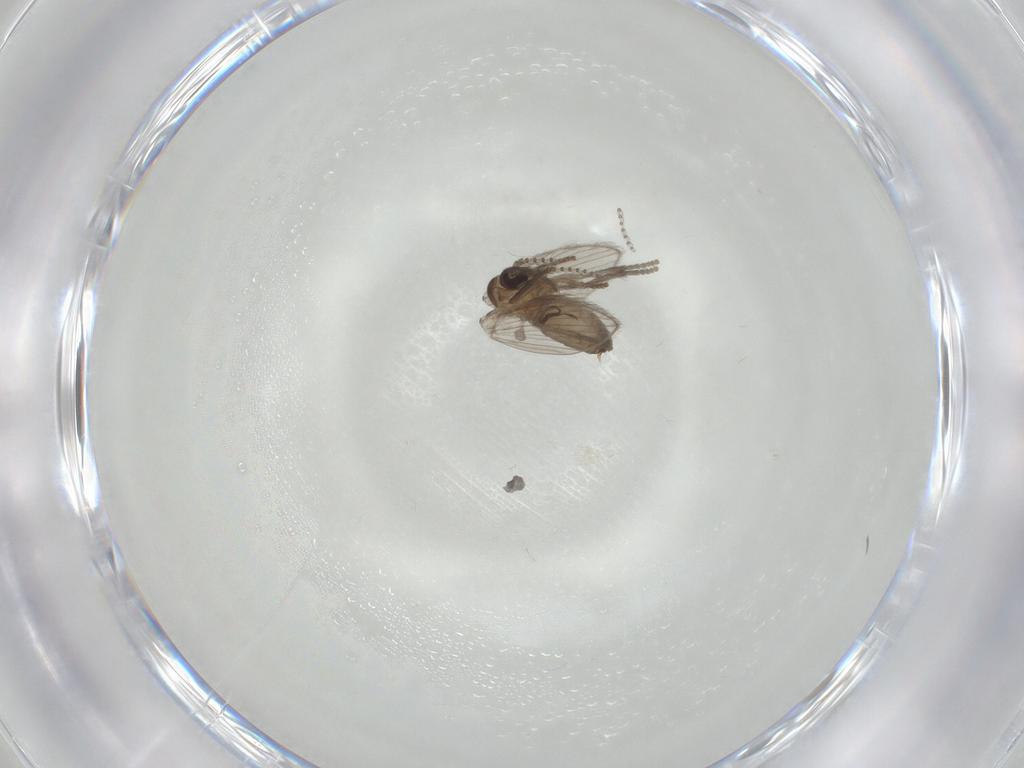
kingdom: Animalia
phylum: Arthropoda
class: Insecta
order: Diptera
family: Psychodidae
